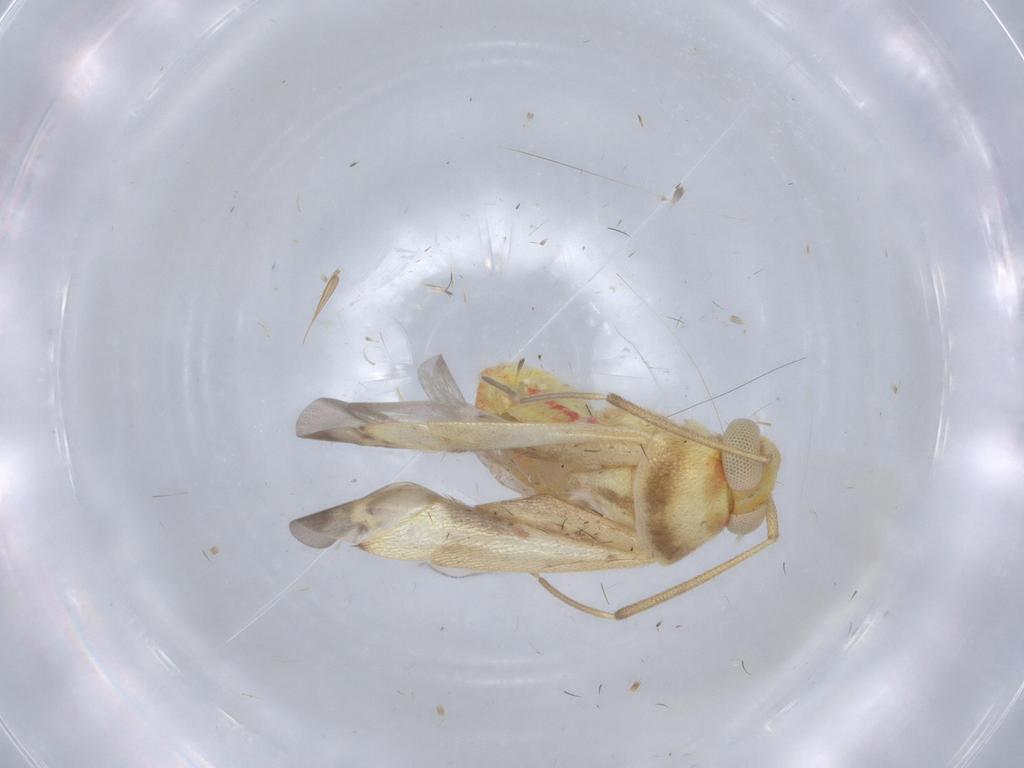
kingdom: Animalia
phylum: Arthropoda
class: Insecta
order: Hemiptera
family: Miridae
